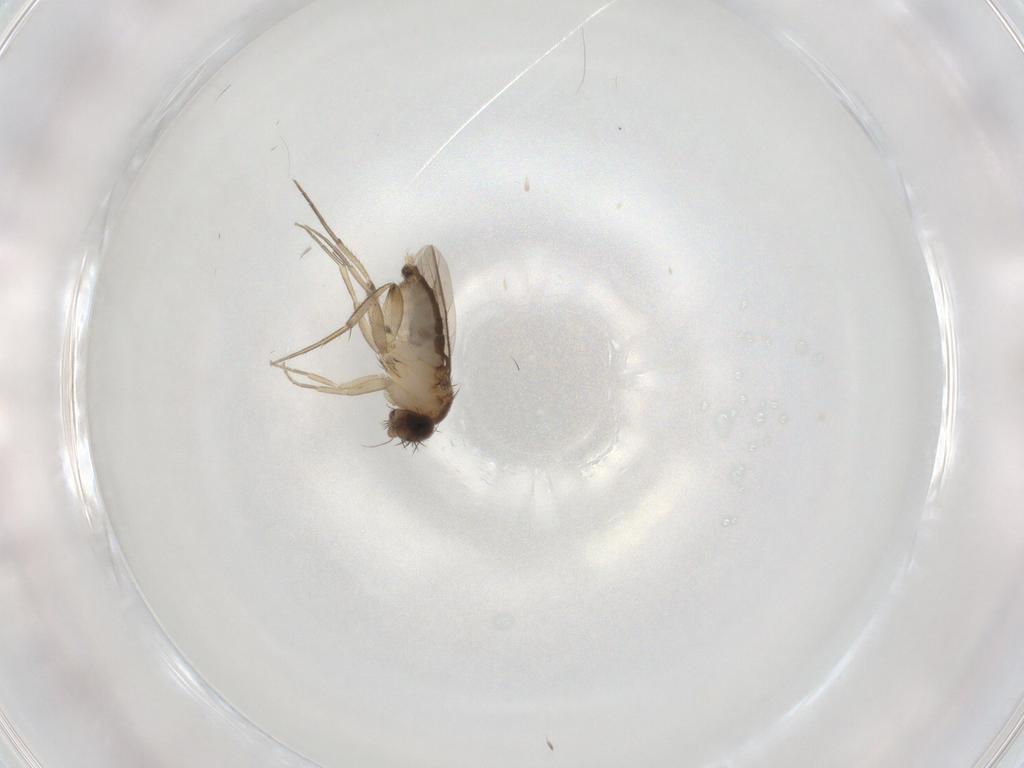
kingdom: Animalia
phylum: Arthropoda
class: Insecta
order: Diptera
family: Phoridae
